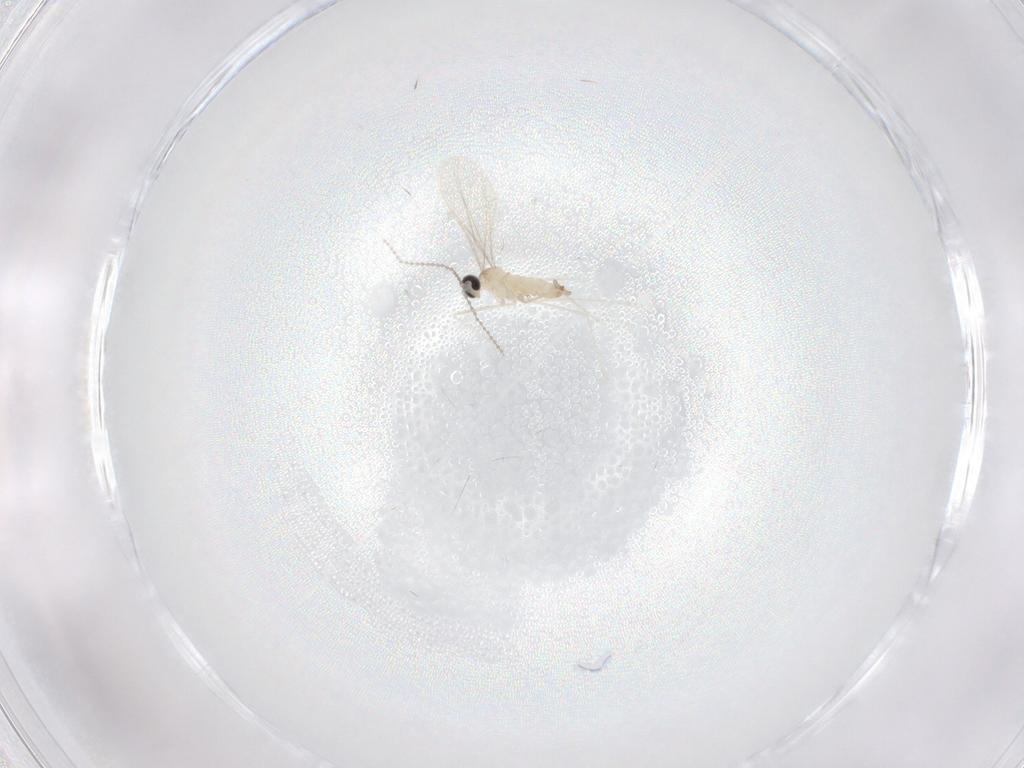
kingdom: Animalia
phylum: Arthropoda
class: Insecta
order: Diptera
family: Cecidomyiidae
